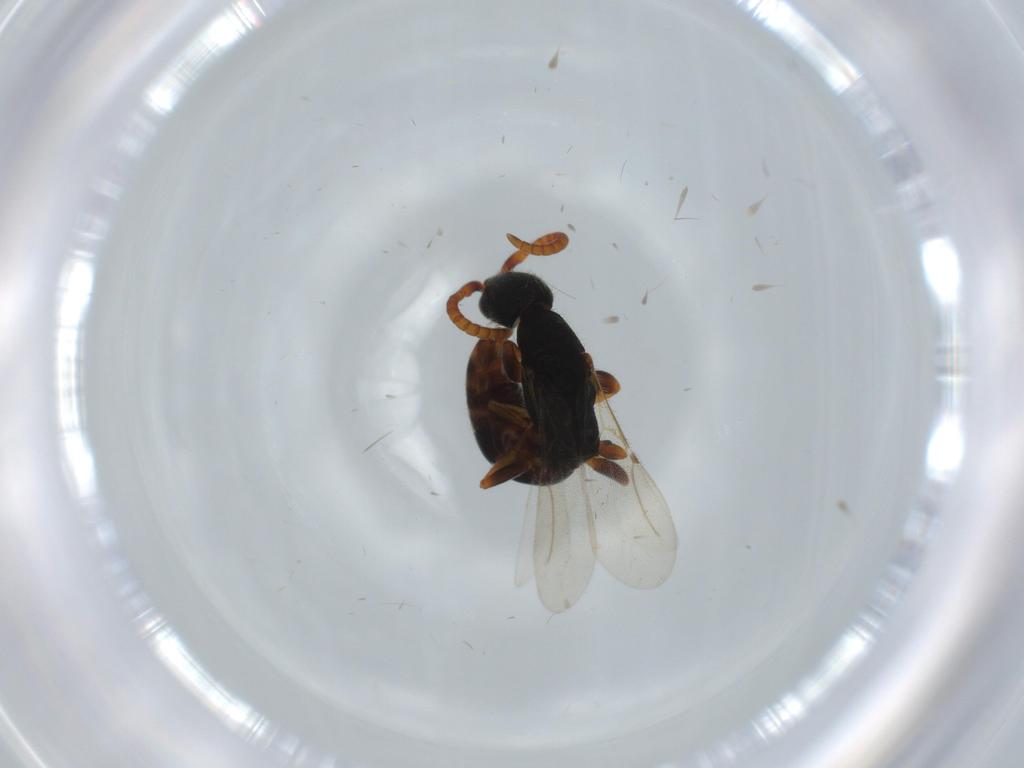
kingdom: Animalia
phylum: Arthropoda
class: Insecta
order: Hymenoptera
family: Bethylidae
